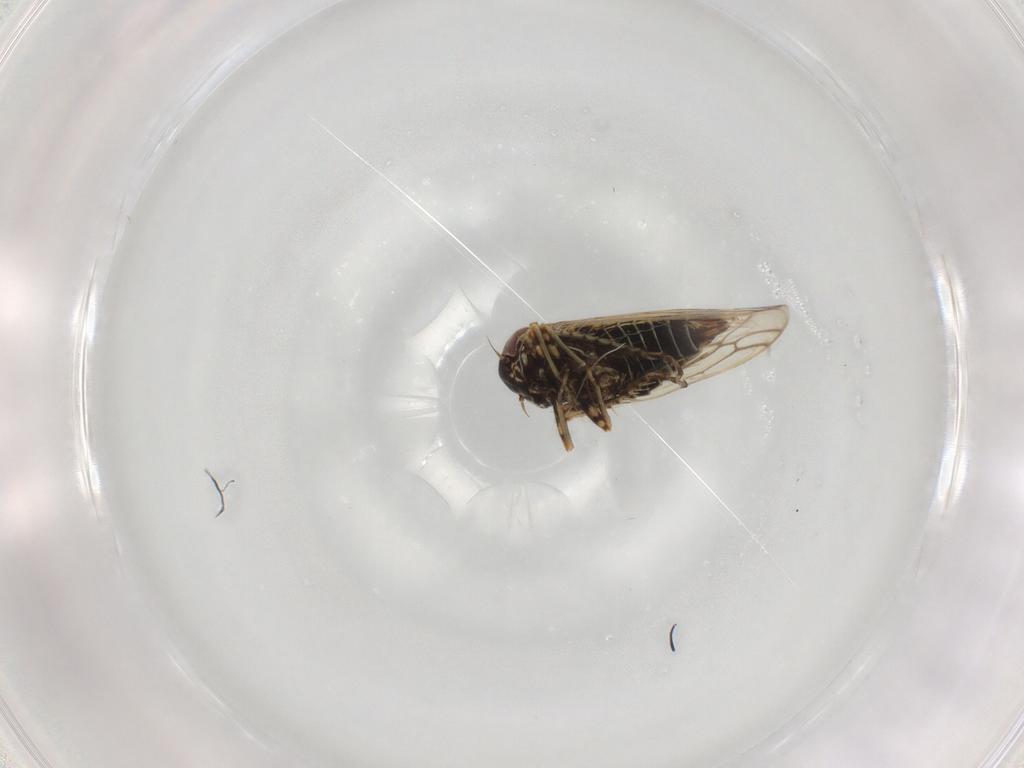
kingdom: Animalia
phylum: Arthropoda
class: Insecta
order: Hemiptera
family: Cicadellidae
